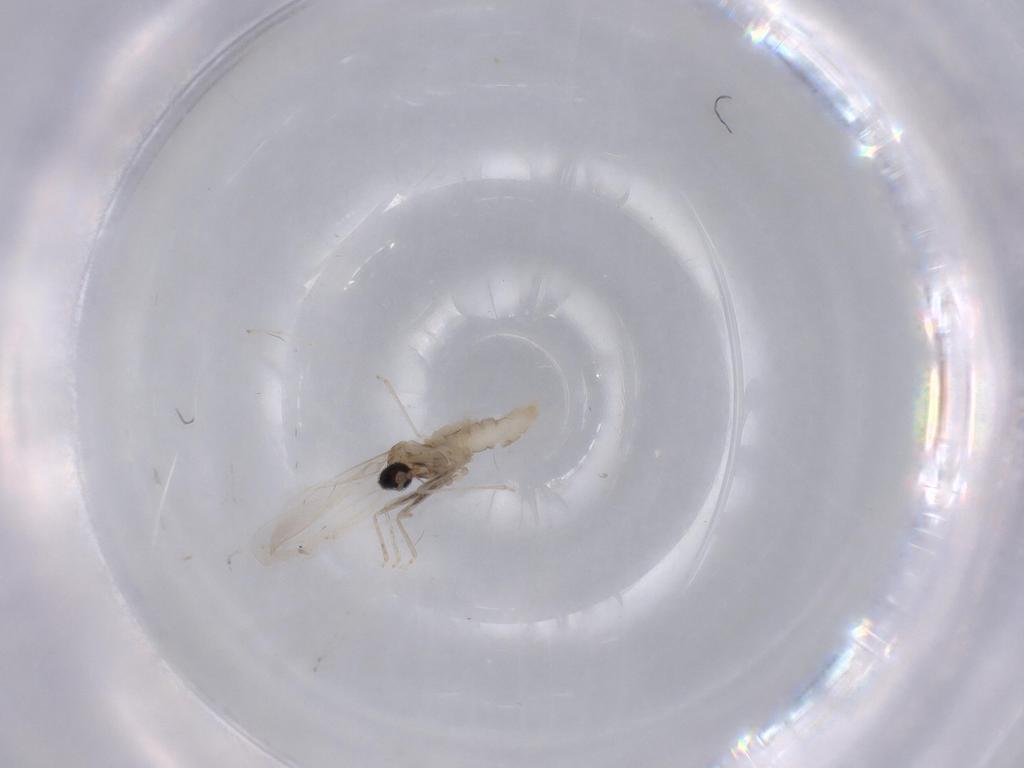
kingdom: Animalia
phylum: Arthropoda
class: Insecta
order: Diptera
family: Cecidomyiidae
